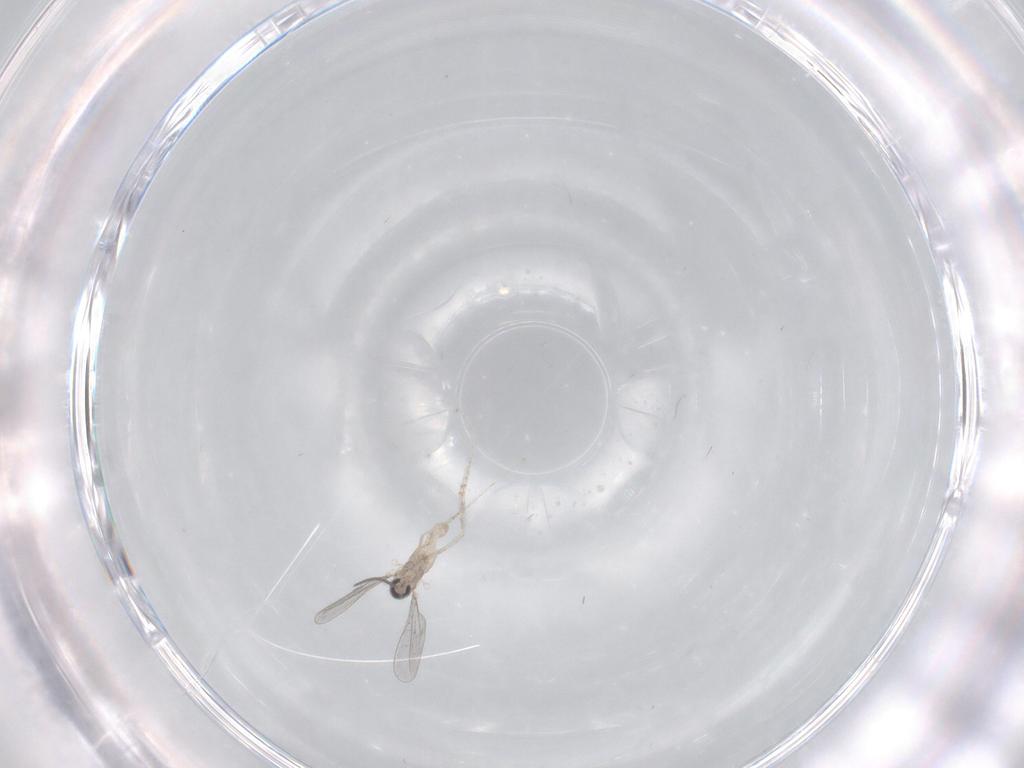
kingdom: Animalia
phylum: Arthropoda
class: Insecta
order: Diptera
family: Cecidomyiidae
